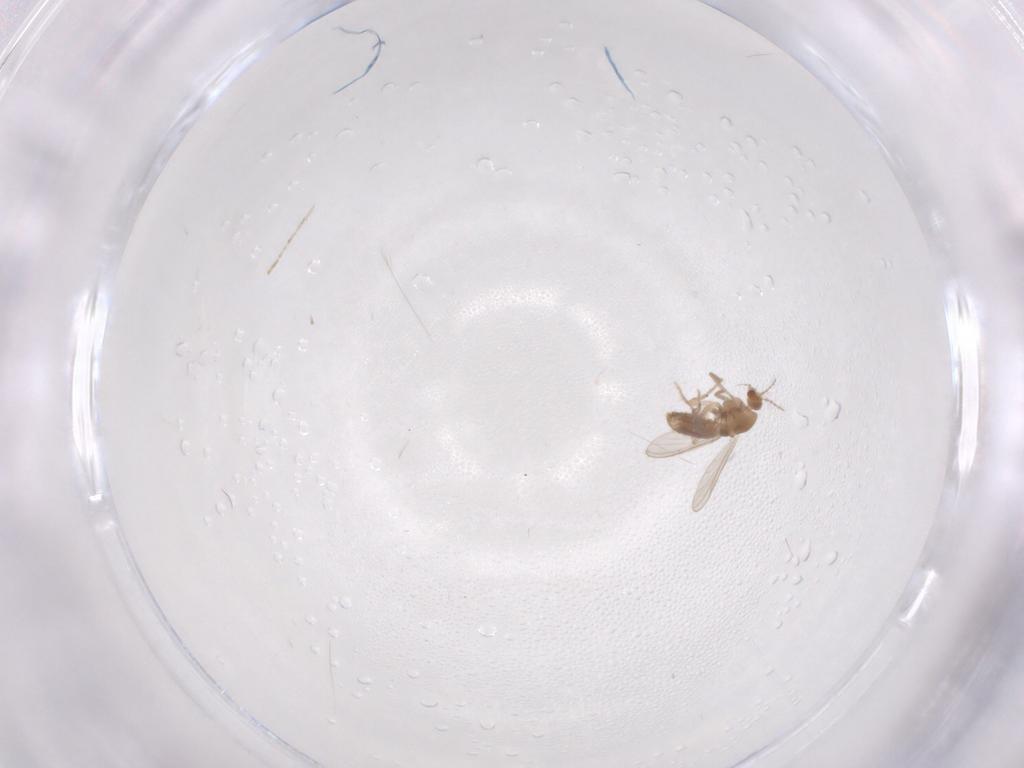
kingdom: Animalia
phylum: Arthropoda
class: Insecta
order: Diptera
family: Chironomidae
